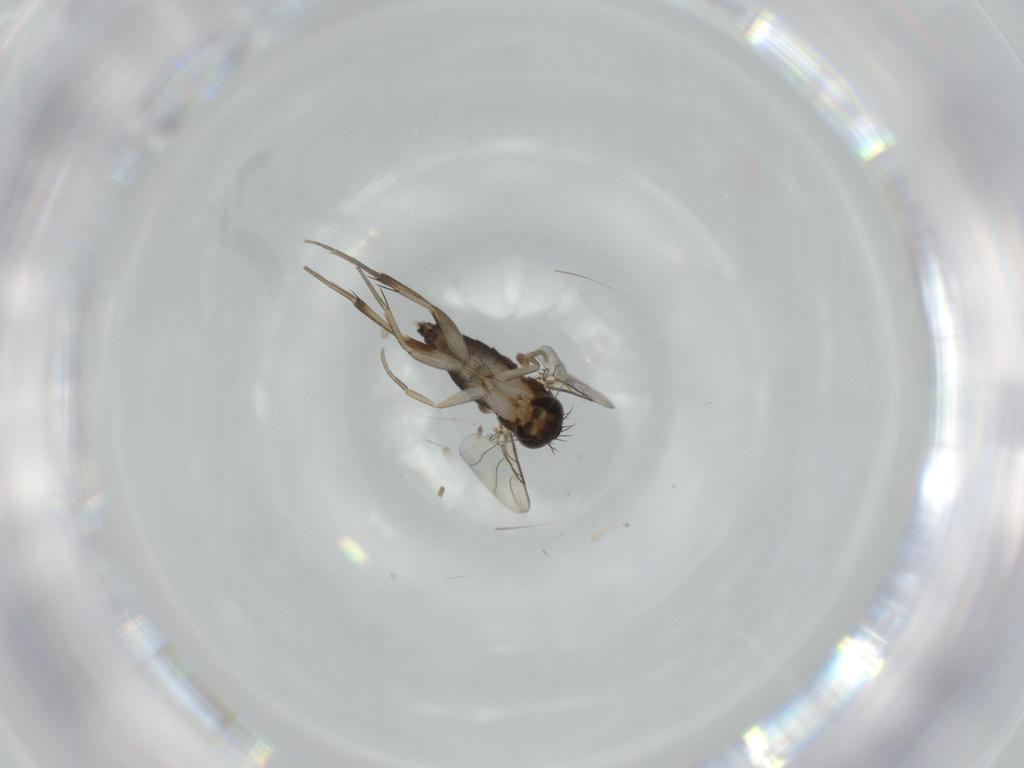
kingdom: Animalia
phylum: Arthropoda
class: Insecta
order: Diptera
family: Phoridae
